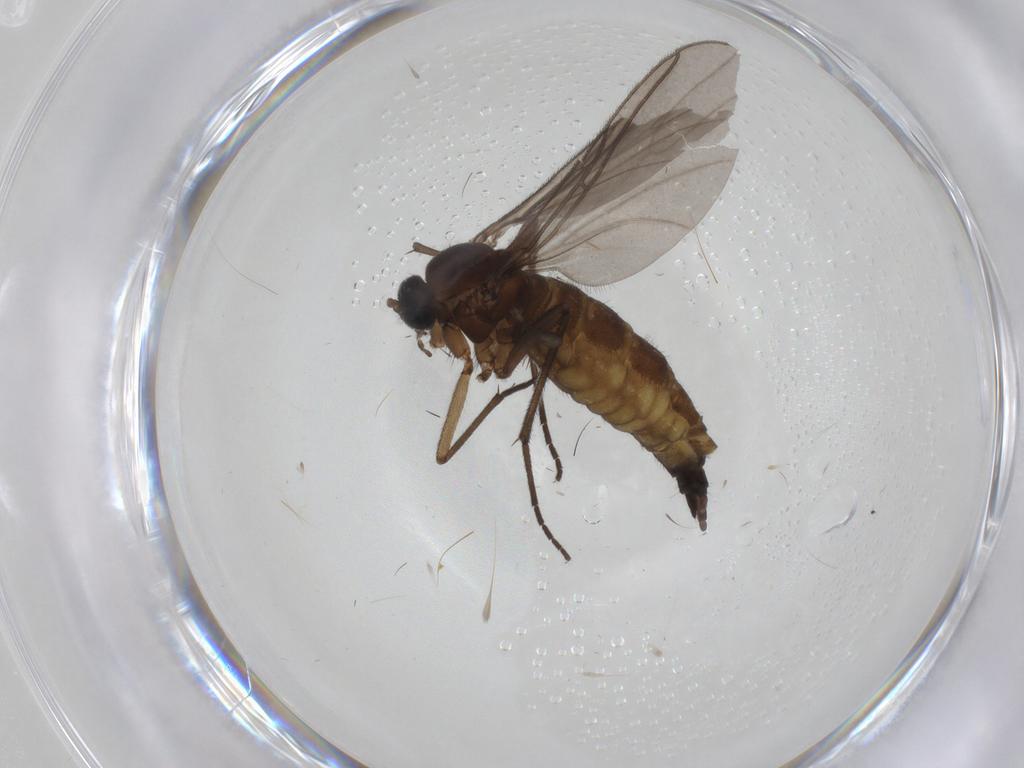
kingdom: Animalia
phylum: Arthropoda
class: Insecta
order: Diptera
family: Sciaridae
